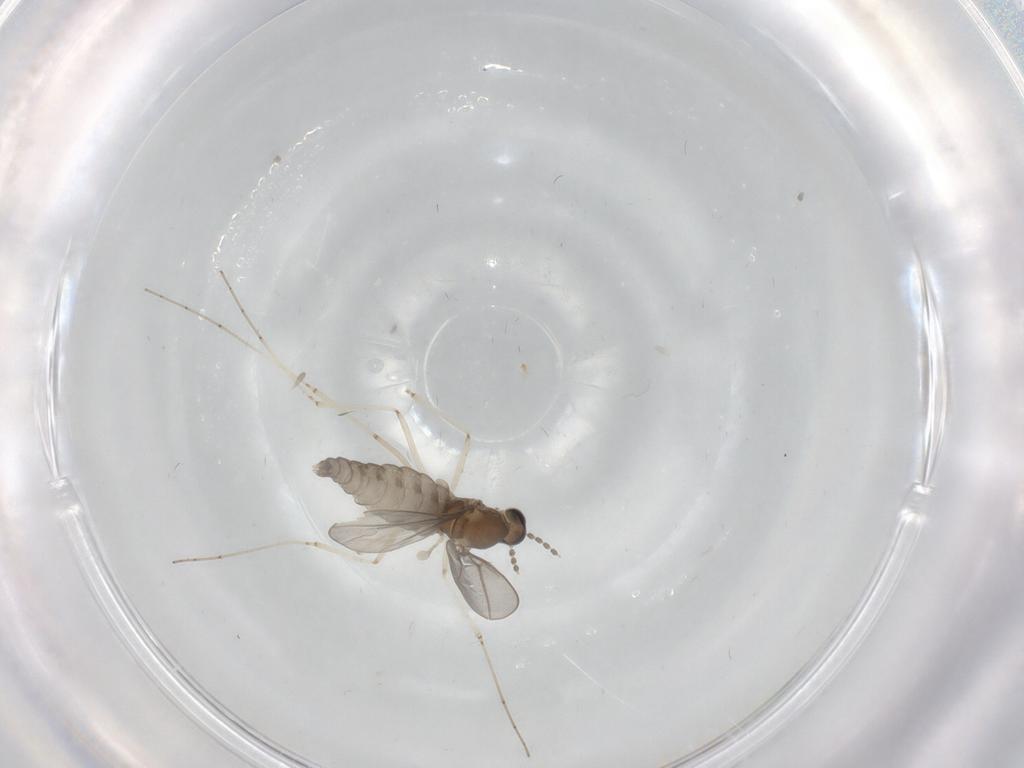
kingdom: Animalia
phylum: Arthropoda
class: Insecta
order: Diptera
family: Cecidomyiidae
